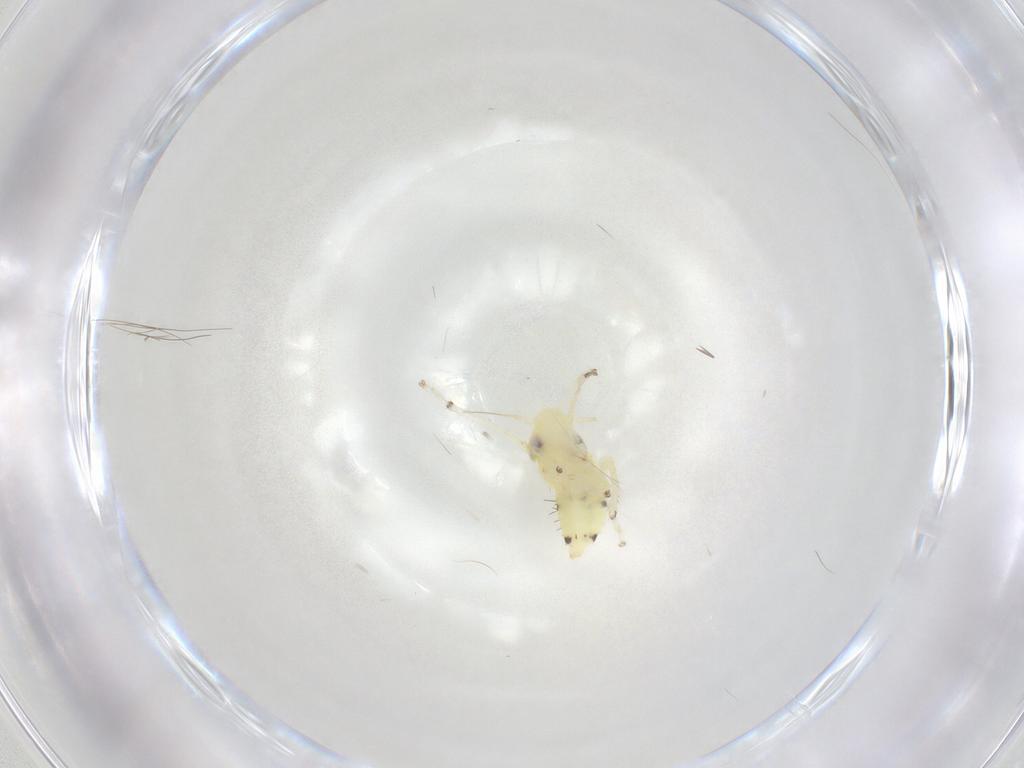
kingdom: Animalia
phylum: Arthropoda
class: Insecta
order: Hemiptera
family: Cicadellidae
